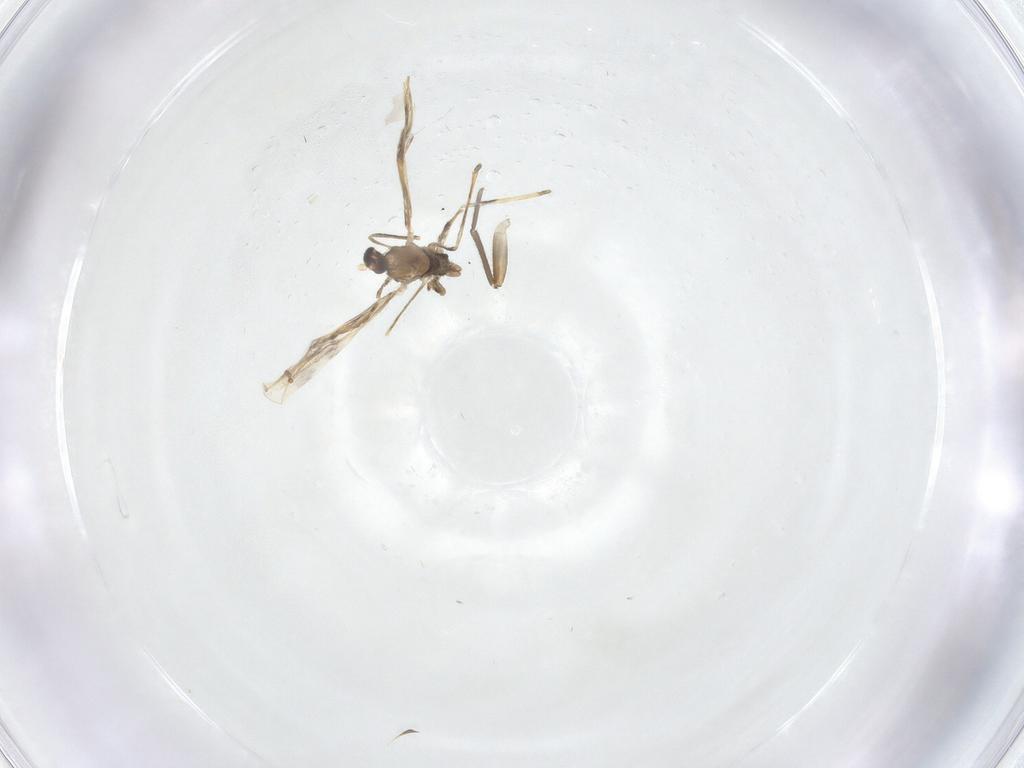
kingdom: Animalia
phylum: Arthropoda
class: Insecta
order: Diptera
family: Cecidomyiidae
